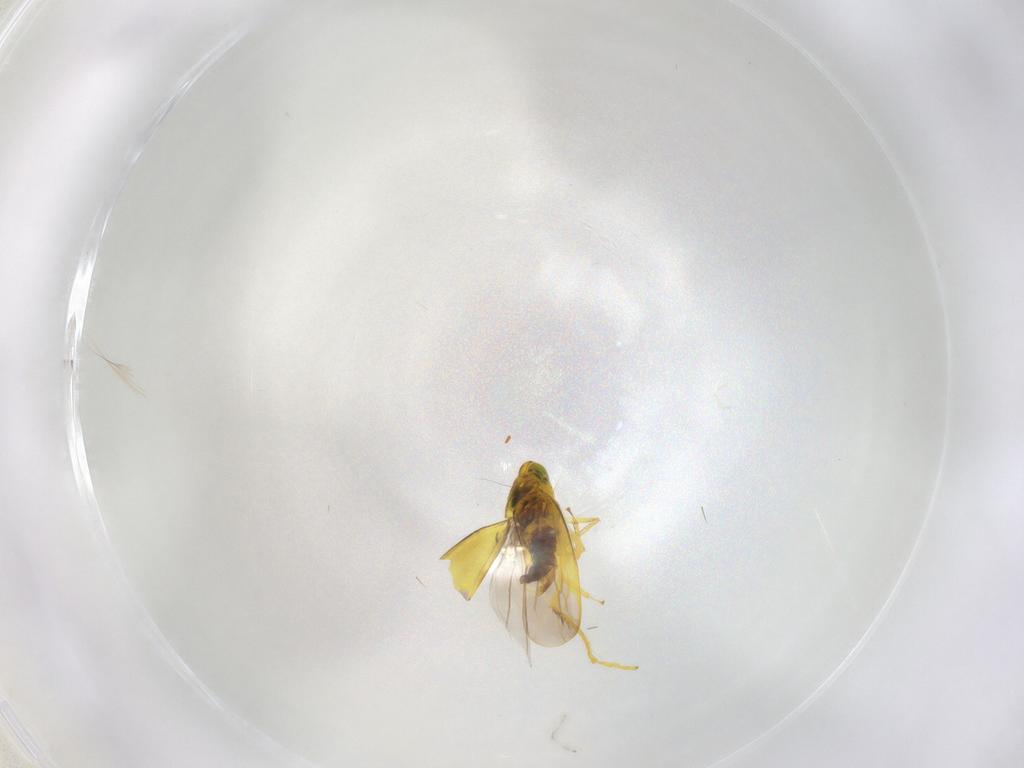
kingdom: Animalia
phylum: Arthropoda
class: Insecta
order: Hemiptera
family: Cicadellidae
